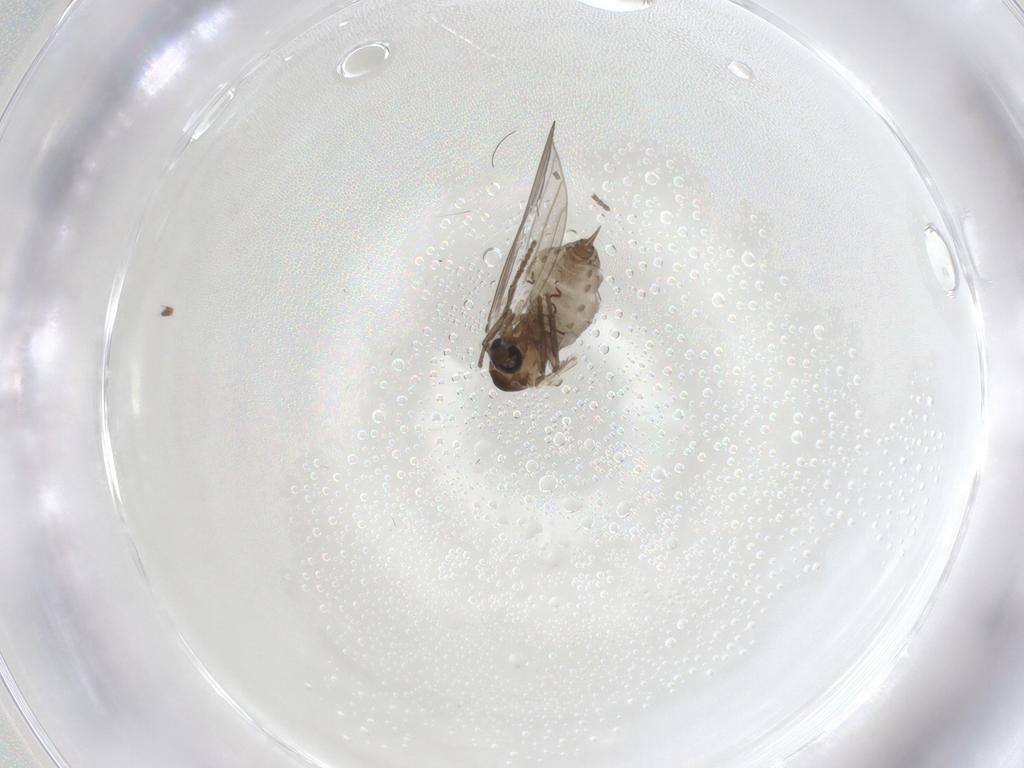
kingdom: Animalia
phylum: Arthropoda
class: Insecta
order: Diptera
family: Psychodidae
